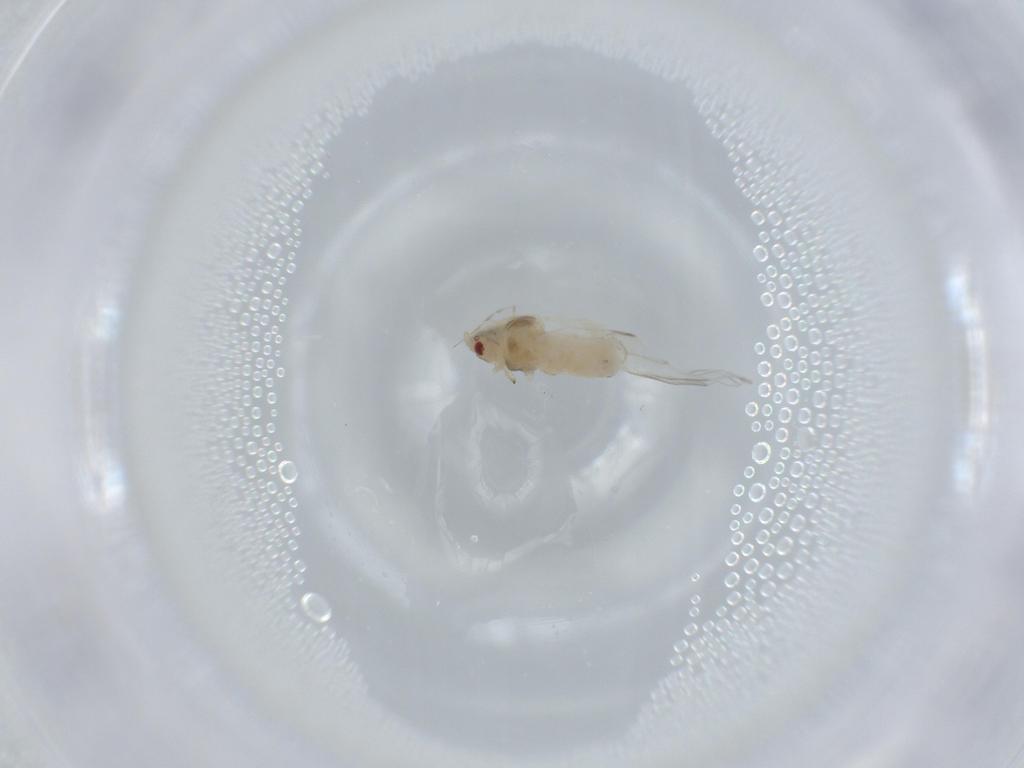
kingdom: Animalia
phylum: Arthropoda
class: Insecta
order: Hemiptera
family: Aphididae
